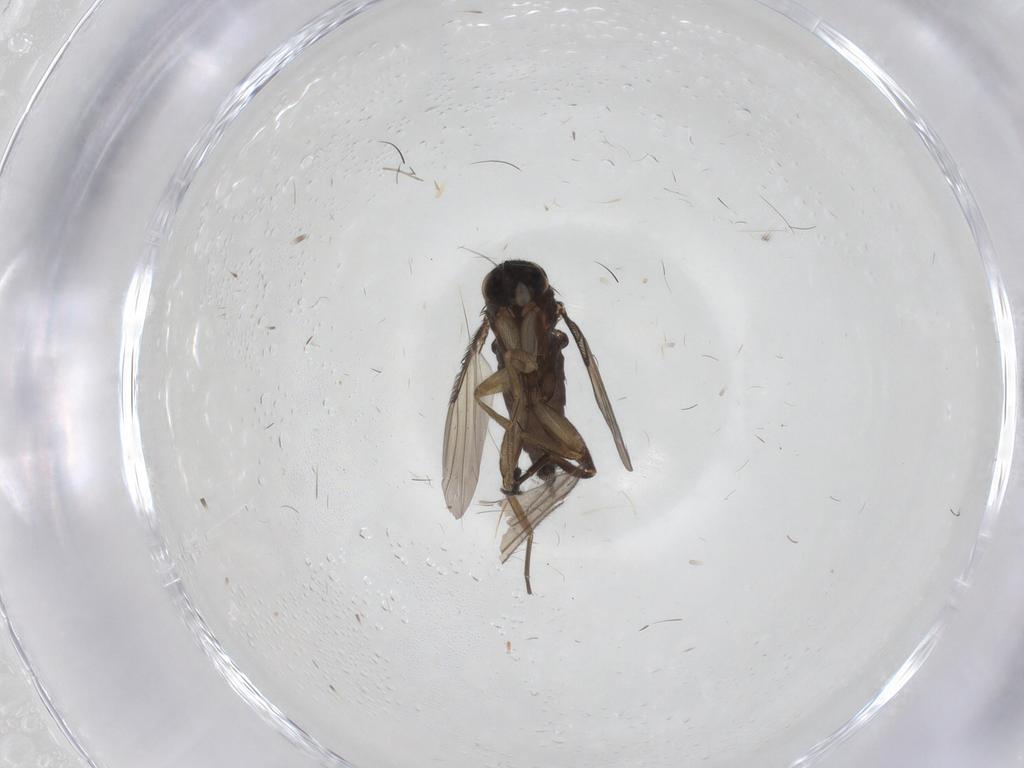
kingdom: Animalia
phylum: Arthropoda
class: Insecta
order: Diptera
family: Phoridae
